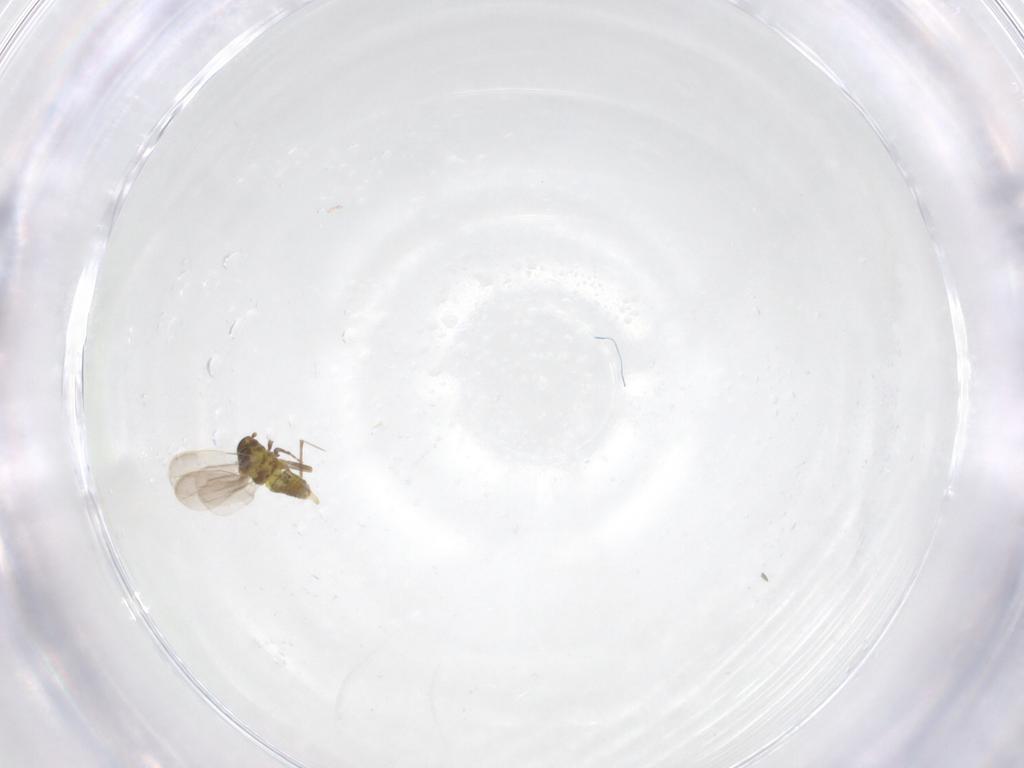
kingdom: Animalia
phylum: Arthropoda
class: Insecta
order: Hemiptera
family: Aleyrodidae
